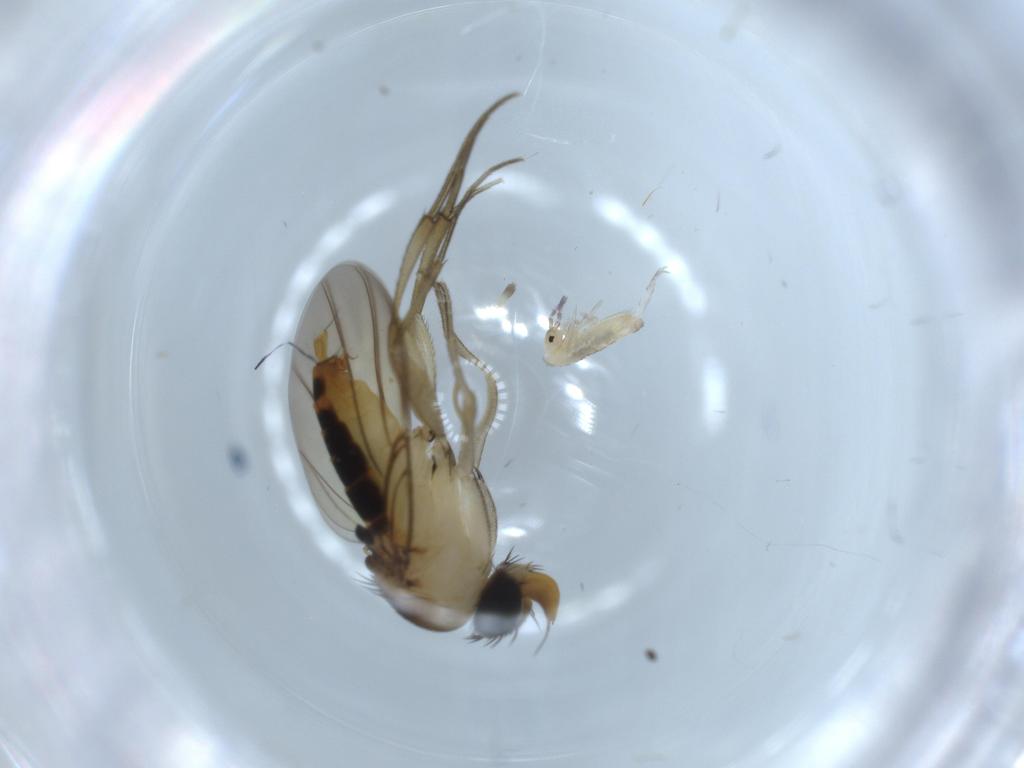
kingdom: Animalia
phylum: Arthropoda
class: Insecta
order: Diptera
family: Phoridae
